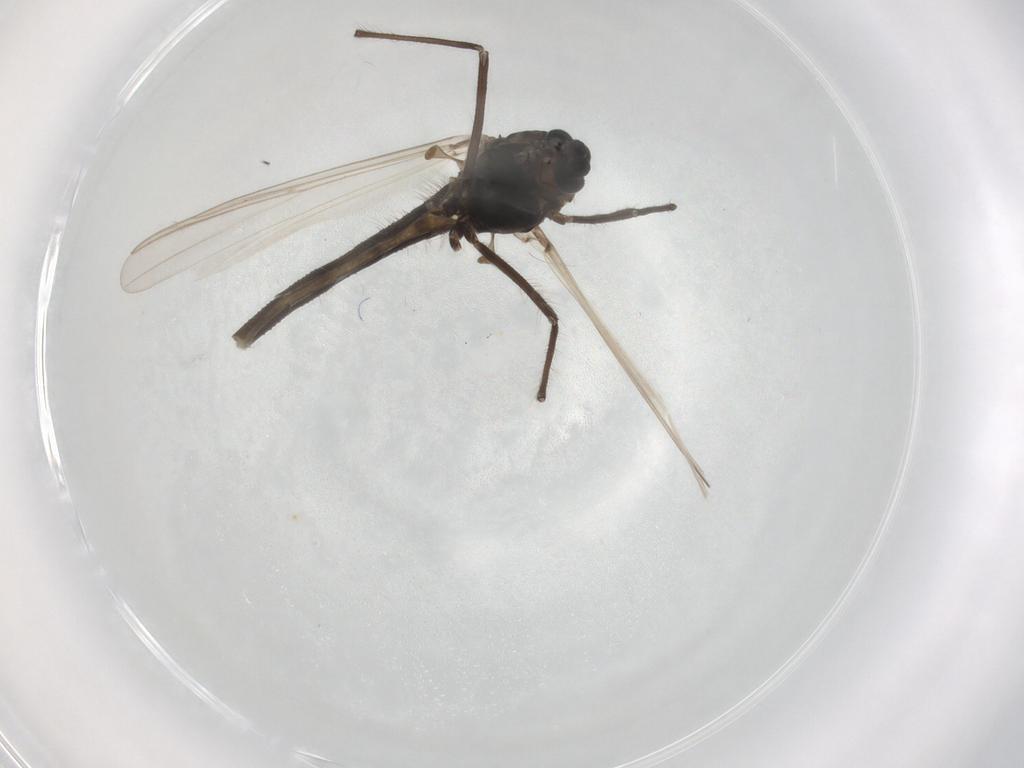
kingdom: Animalia
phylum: Arthropoda
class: Insecta
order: Diptera
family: Chironomidae
